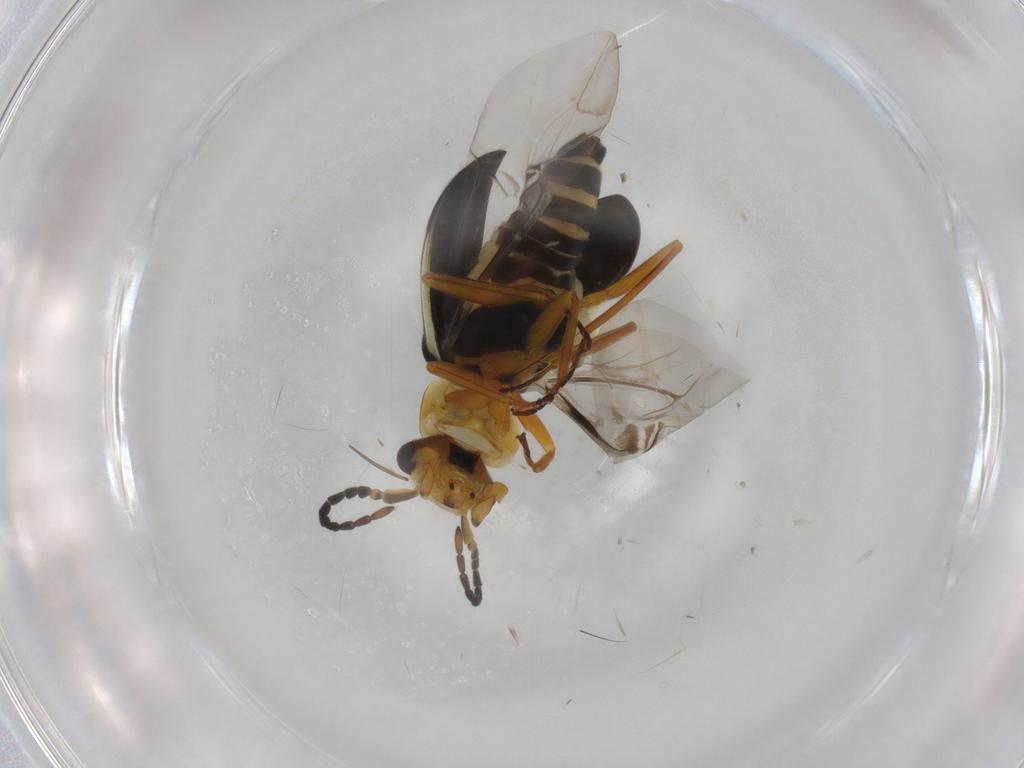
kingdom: Animalia
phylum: Arthropoda
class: Insecta
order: Coleoptera
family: Melyridae
